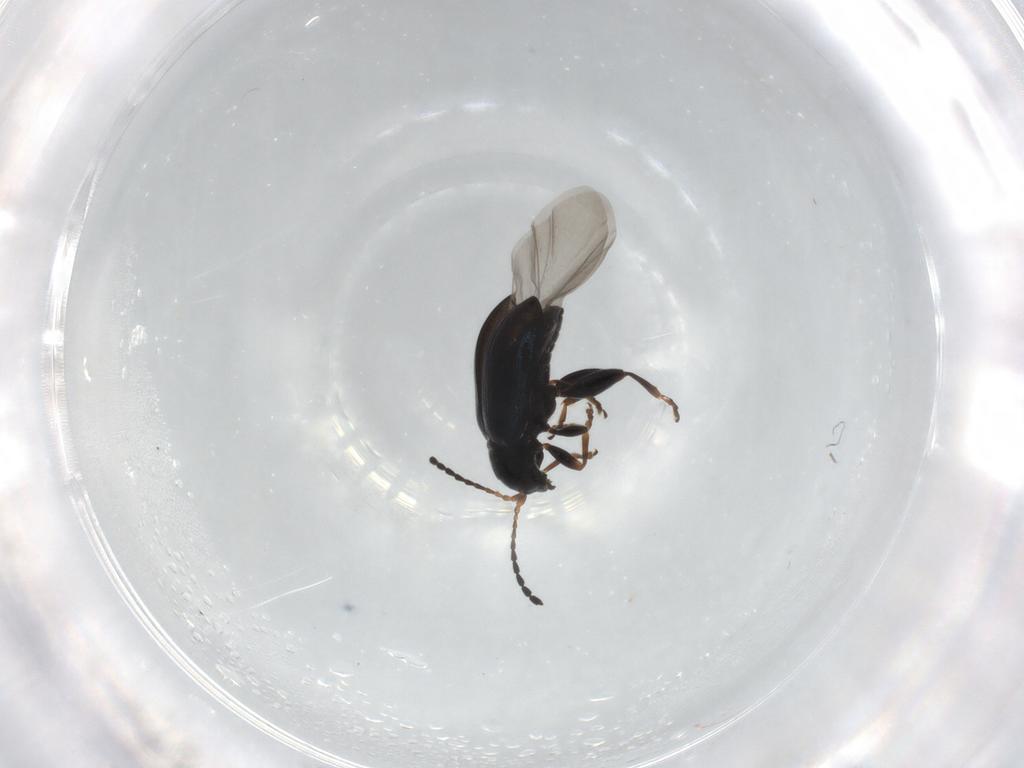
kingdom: Animalia
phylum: Arthropoda
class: Insecta
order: Coleoptera
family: Chrysomelidae
